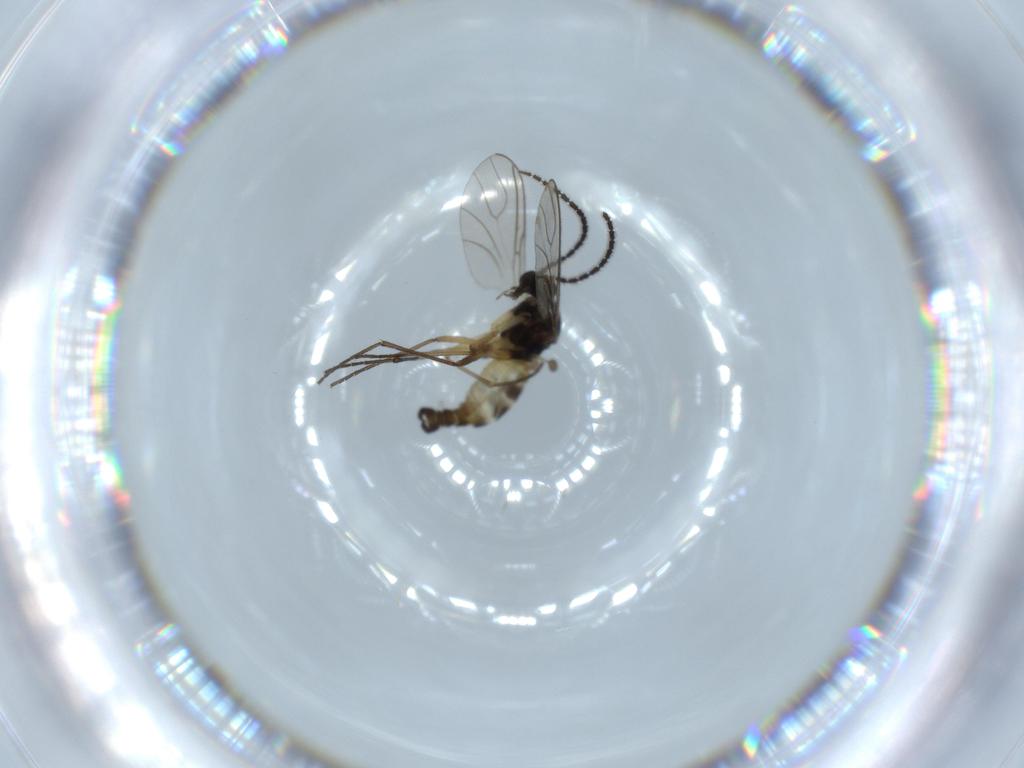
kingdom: Animalia
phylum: Arthropoda
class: Insecta
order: Diptera
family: Sciaridae
